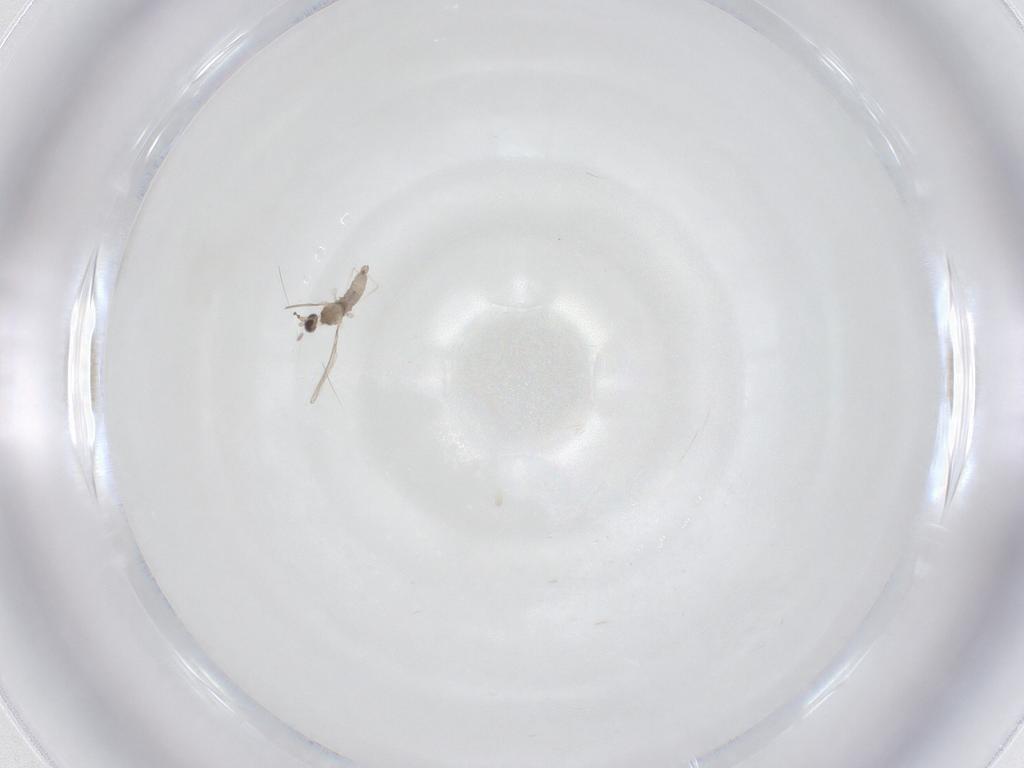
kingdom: Animalia
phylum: Arthropoda
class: Insecta
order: Diptera
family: Cecidomyiidae
